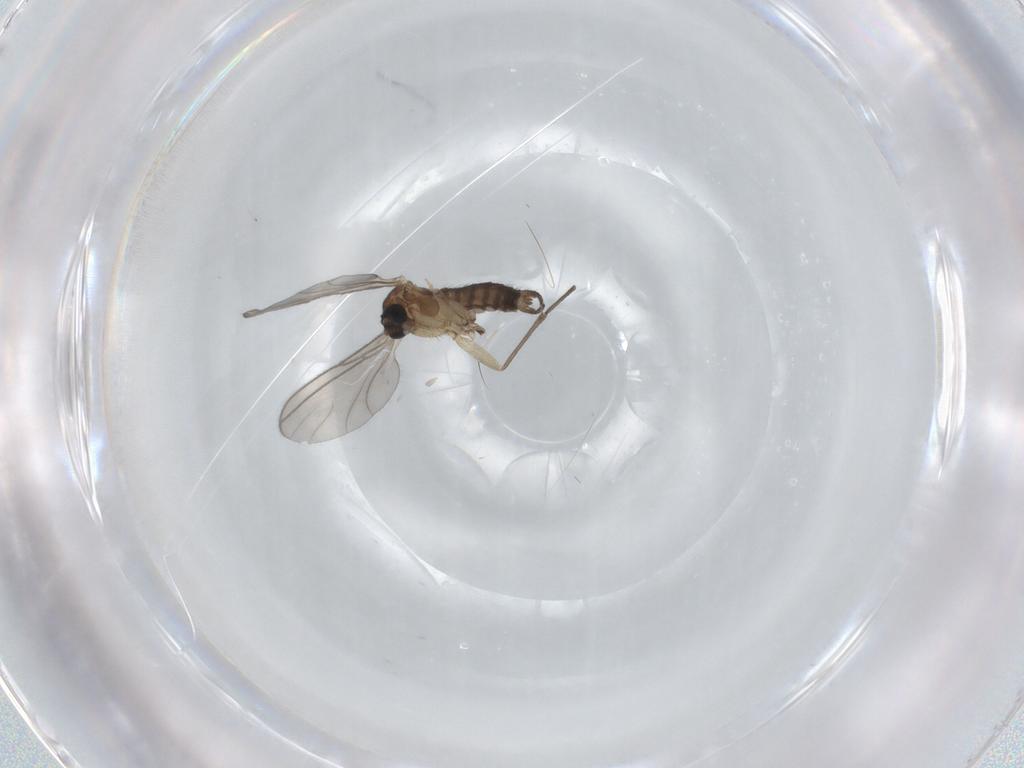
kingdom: Animalia
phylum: Arthropoda
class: Insecta
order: Diptera
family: Sciaridae
